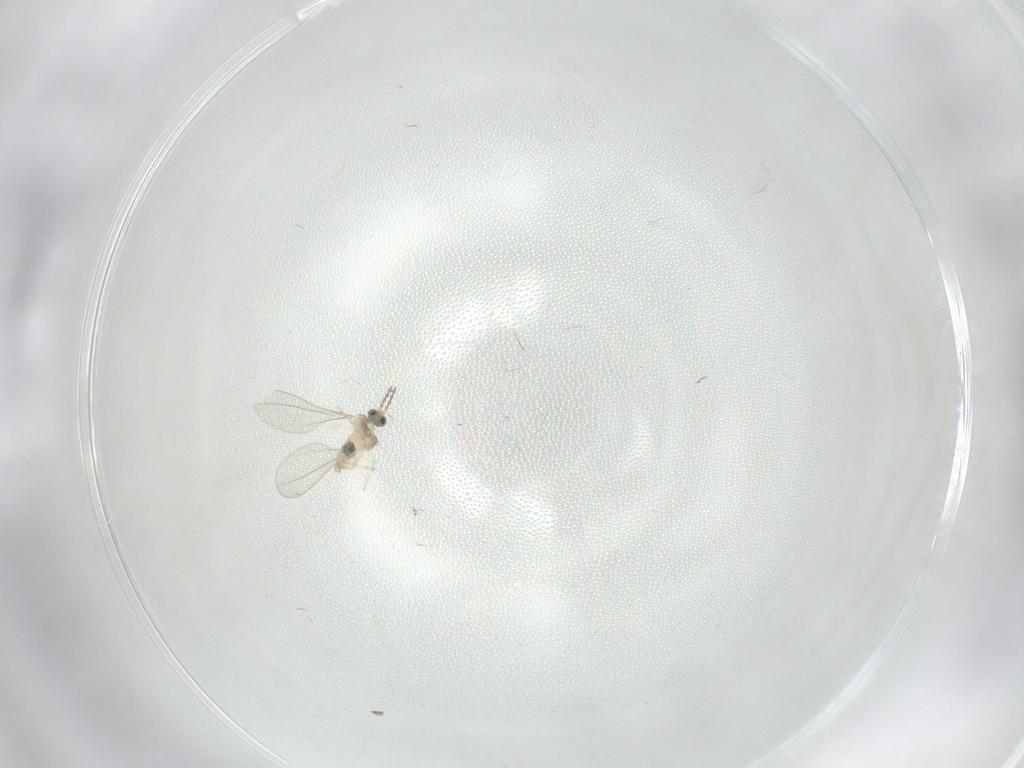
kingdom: Animalia
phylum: Arthropoda
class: Insecta
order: Diptera
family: Cecidomyiidae
